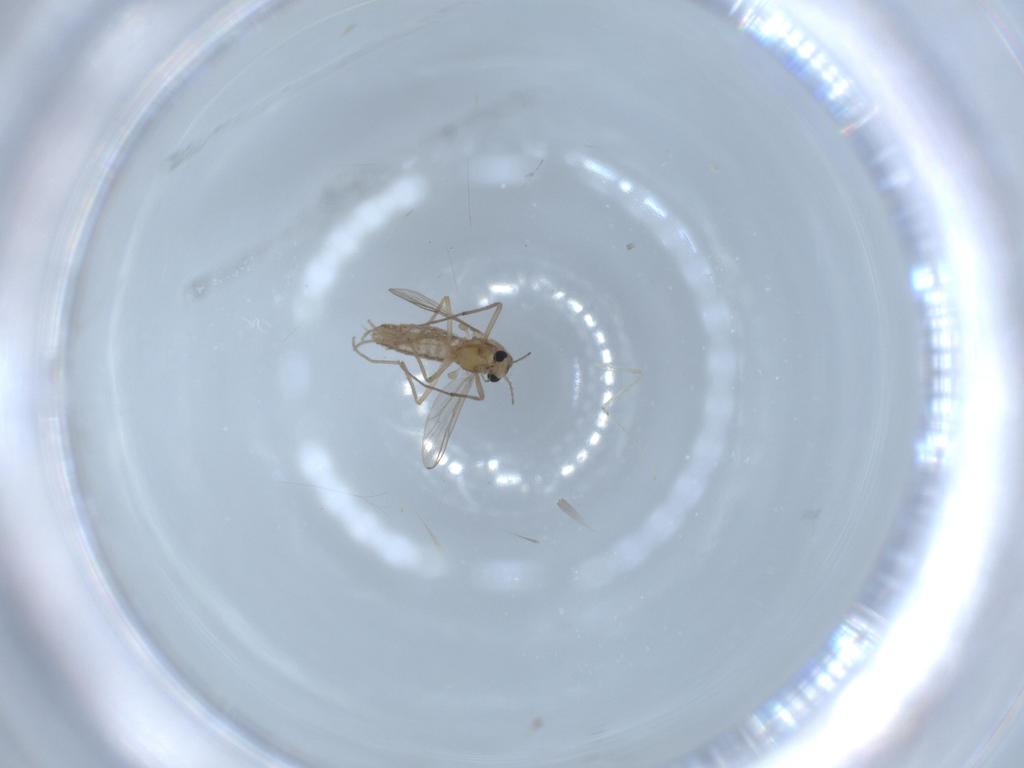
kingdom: Animalia
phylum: Arthropoda
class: Insecta
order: Diptera
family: Chironomidae
